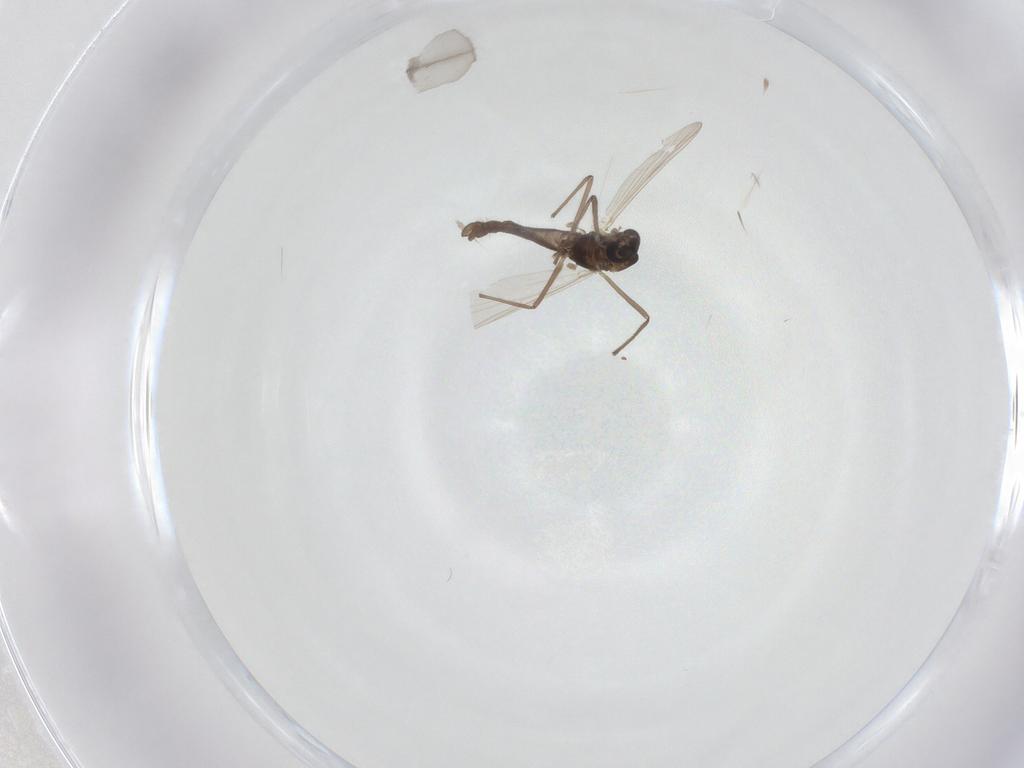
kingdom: Animalia
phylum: Arthropoda
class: Insecta
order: Diptera
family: Chironomidae
